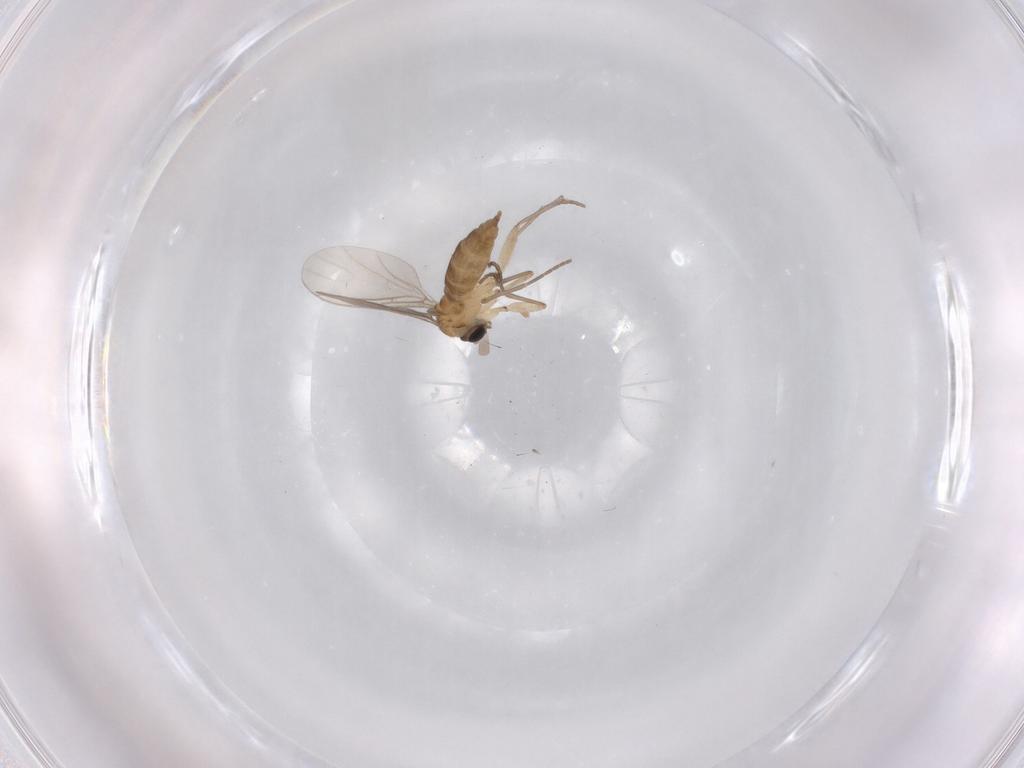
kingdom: Animalia
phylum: Arthropoda
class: Insecta
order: Diptera
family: Sciaridae
